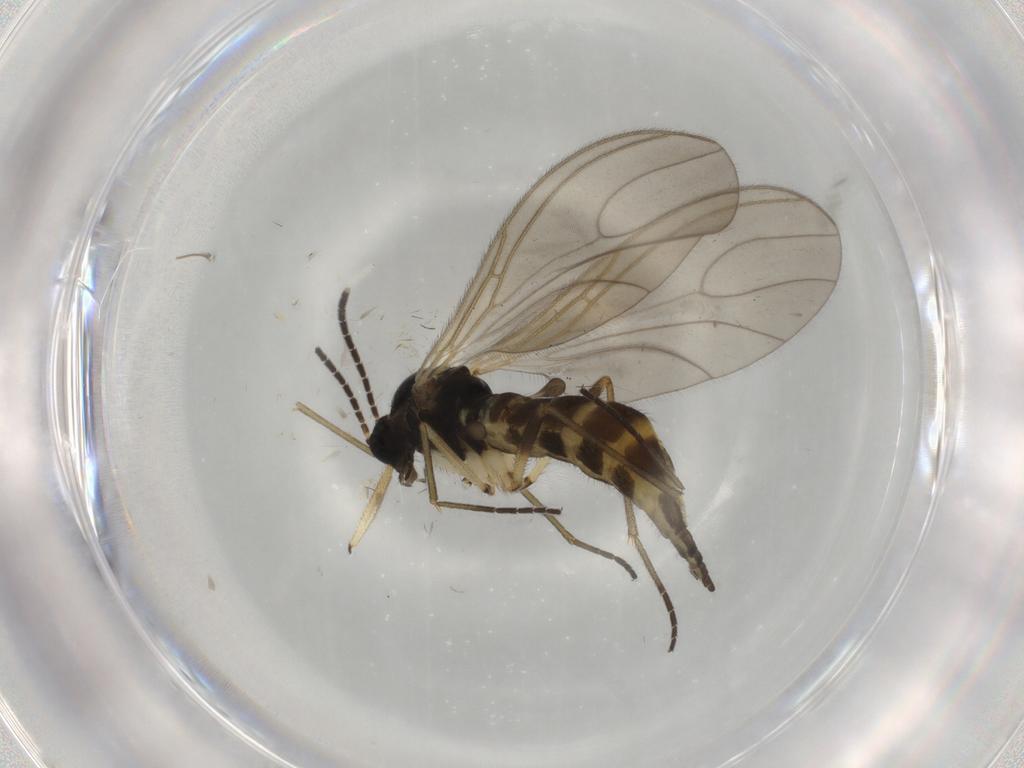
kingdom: Animalia
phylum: Arthropoda
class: Insecta
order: Diptera
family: Sciaridae
